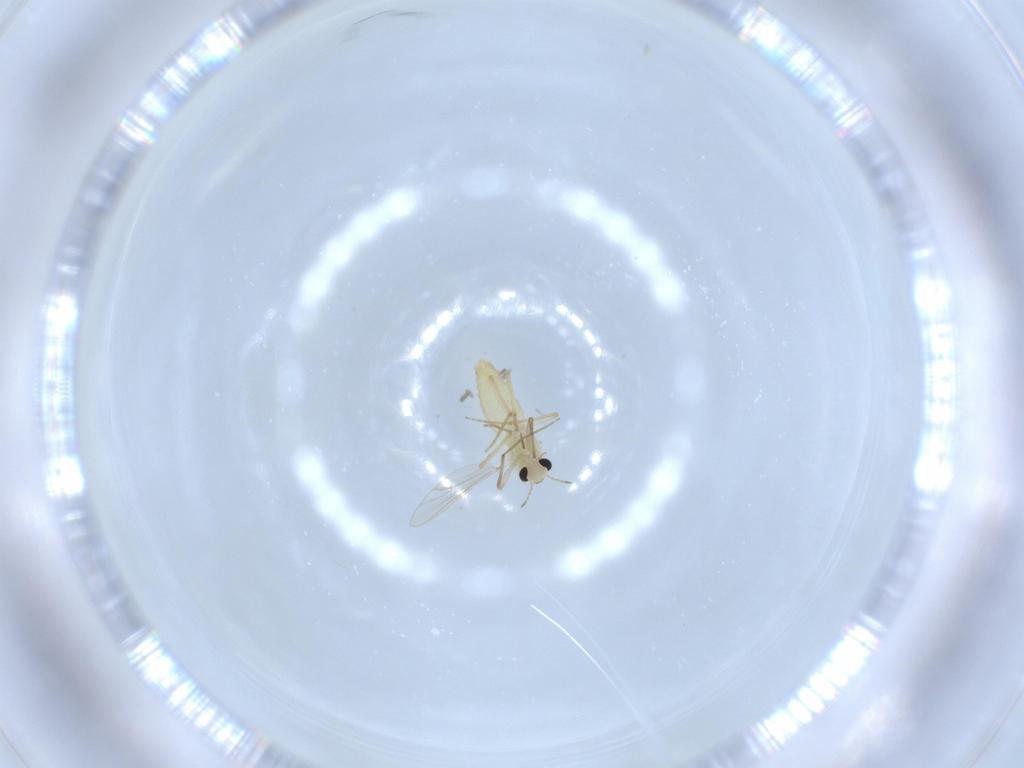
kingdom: Animalia
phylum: Arthropoda
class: Insecta
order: Diptera
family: Chironomidae
